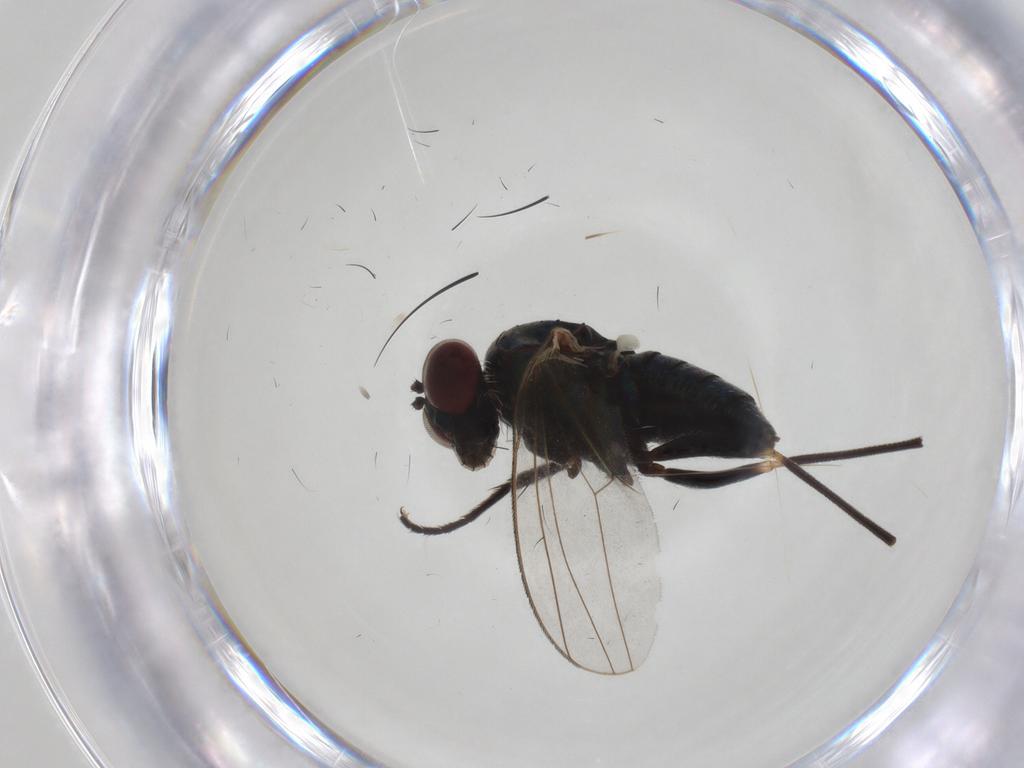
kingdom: Animalia
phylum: Arthropoda
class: Insecta
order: Diptera
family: Dolichopodidae
